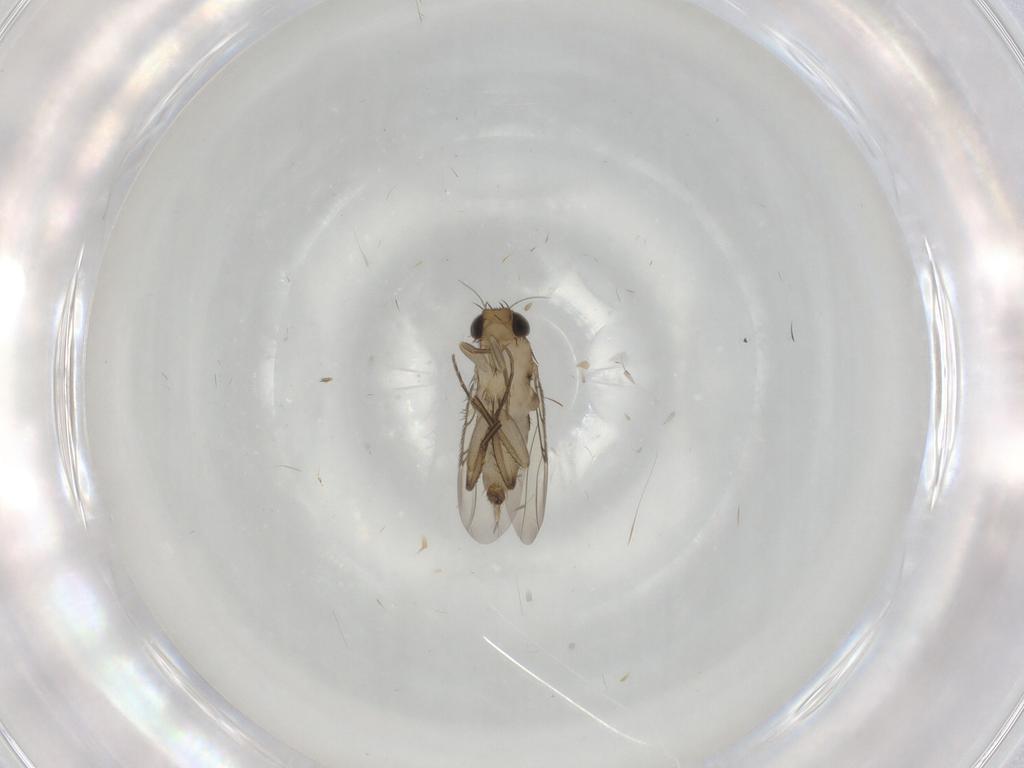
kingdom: Animalia
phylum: Arthropoda
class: Insecta
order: Diptera
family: Phoridae
